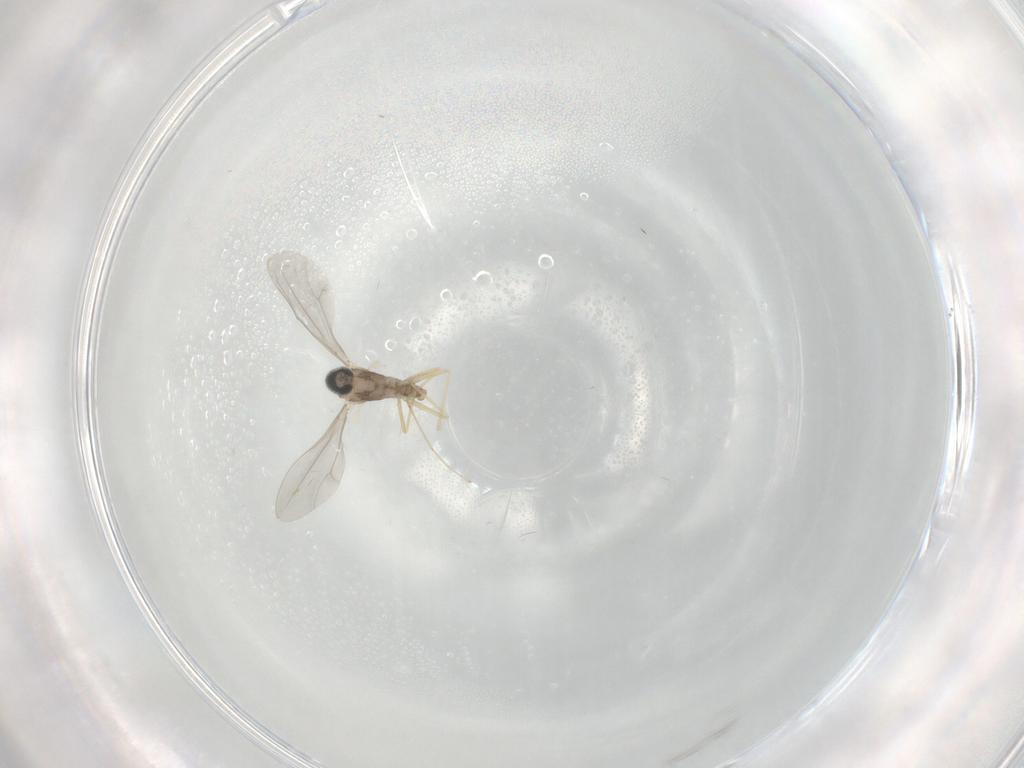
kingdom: Animalia
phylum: Arthropoda
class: Insecta
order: Diptera
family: Cecidomyiidae
